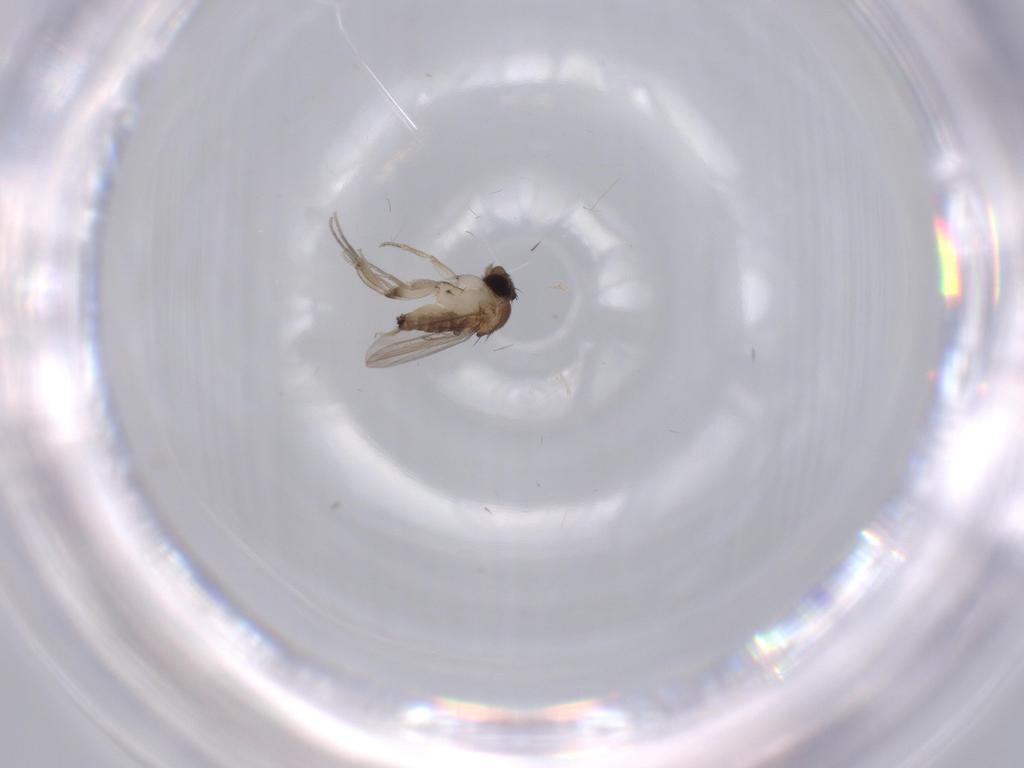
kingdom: Animalia
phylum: Arthropoda
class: Insecta
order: Diptera
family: Phoridae
